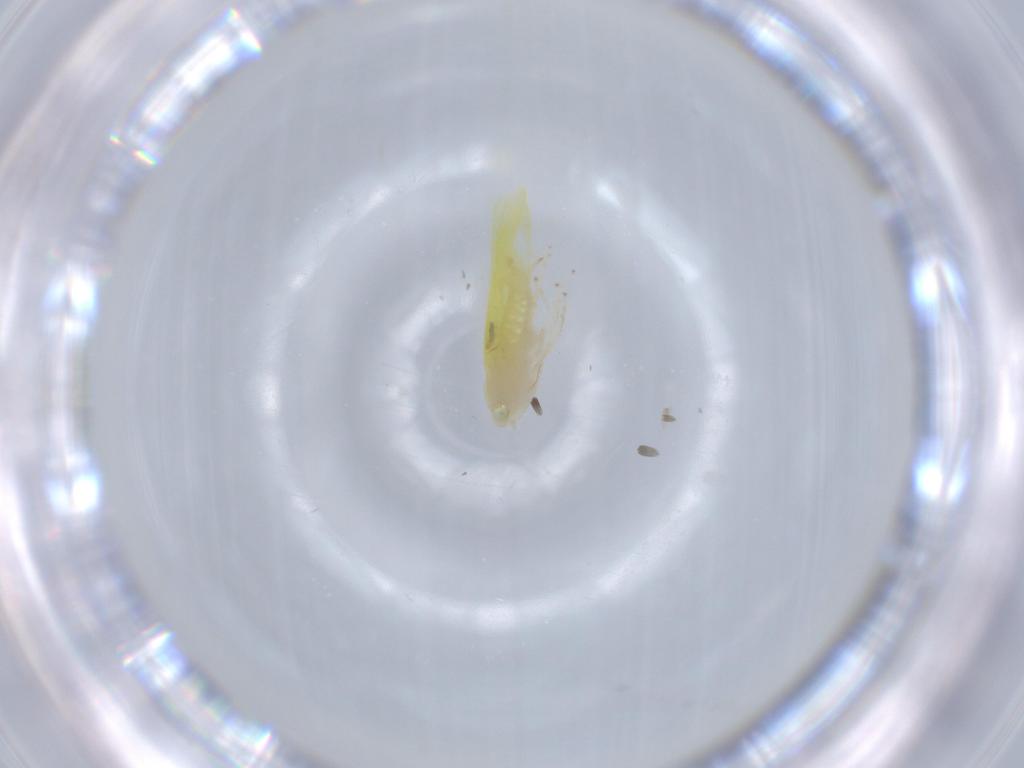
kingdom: Animalia
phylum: Arthropoda
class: Insecta
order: Hemiptera
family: Cicadellidae
